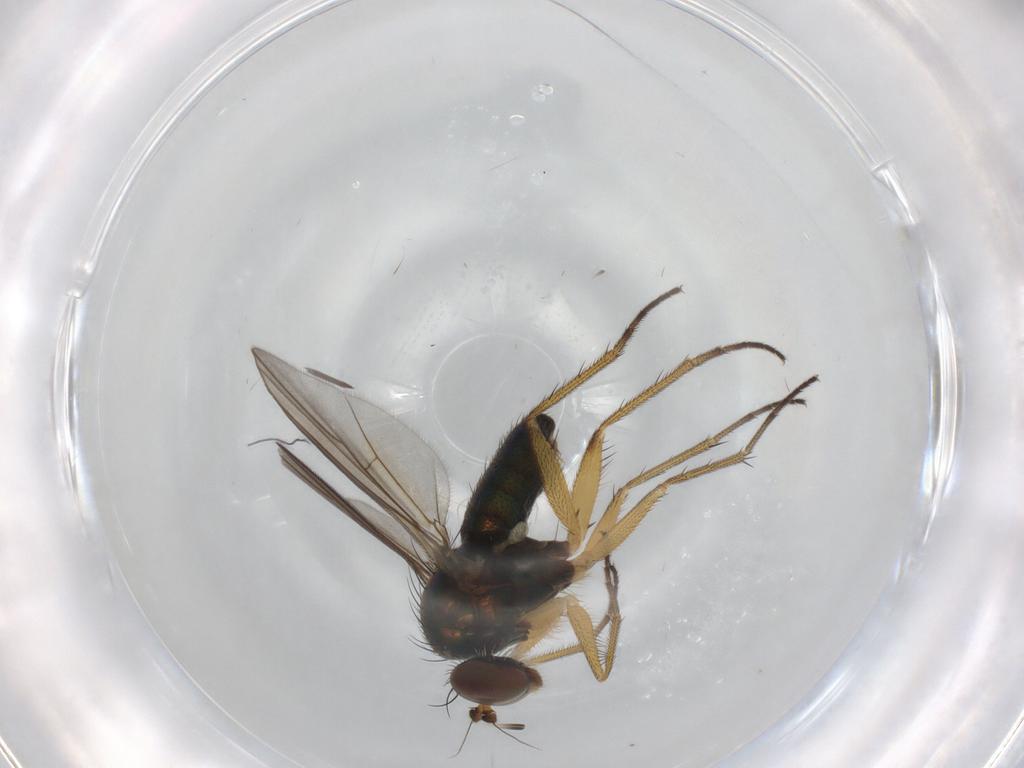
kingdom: Animalia
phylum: Arthropoda
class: Insecta
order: Diptera
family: Dolichopodidae
